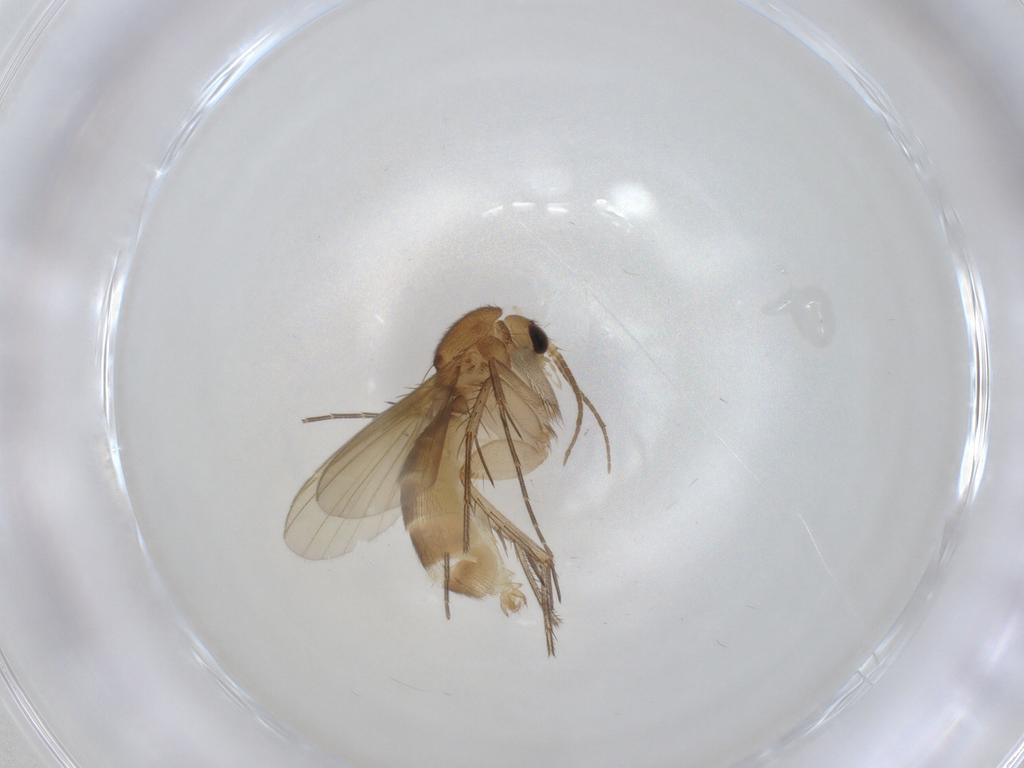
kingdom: Animalia
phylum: Arthropoda
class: Insecta
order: Diptera
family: Mycetophilidae
